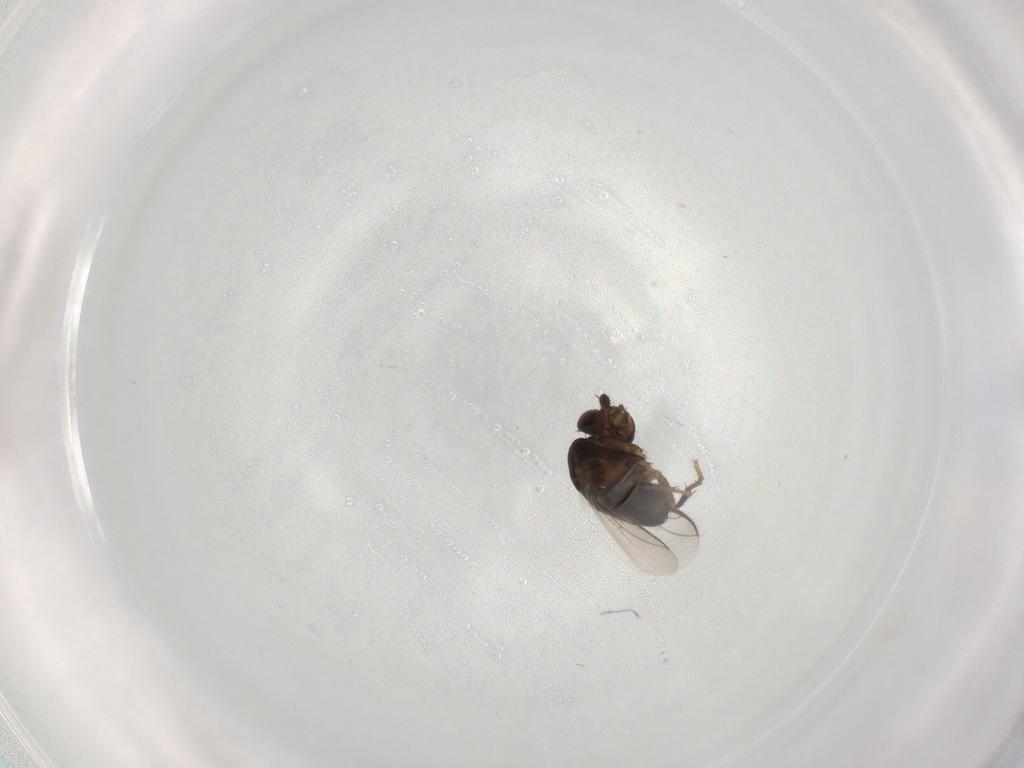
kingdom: Animalia
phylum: Arthropoda
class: Insecta
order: Diptera
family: Sphaeroceridae
